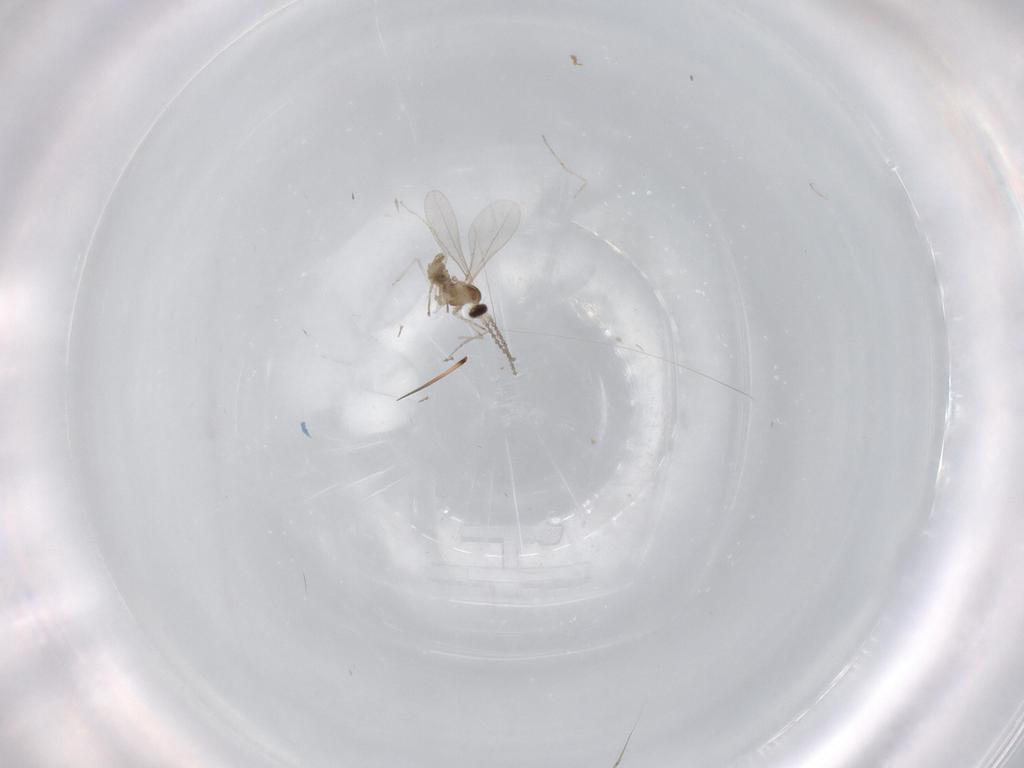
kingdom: Animalia
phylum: Arthropoda
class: Insecta
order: Diptera
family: Cecidomyiidae
